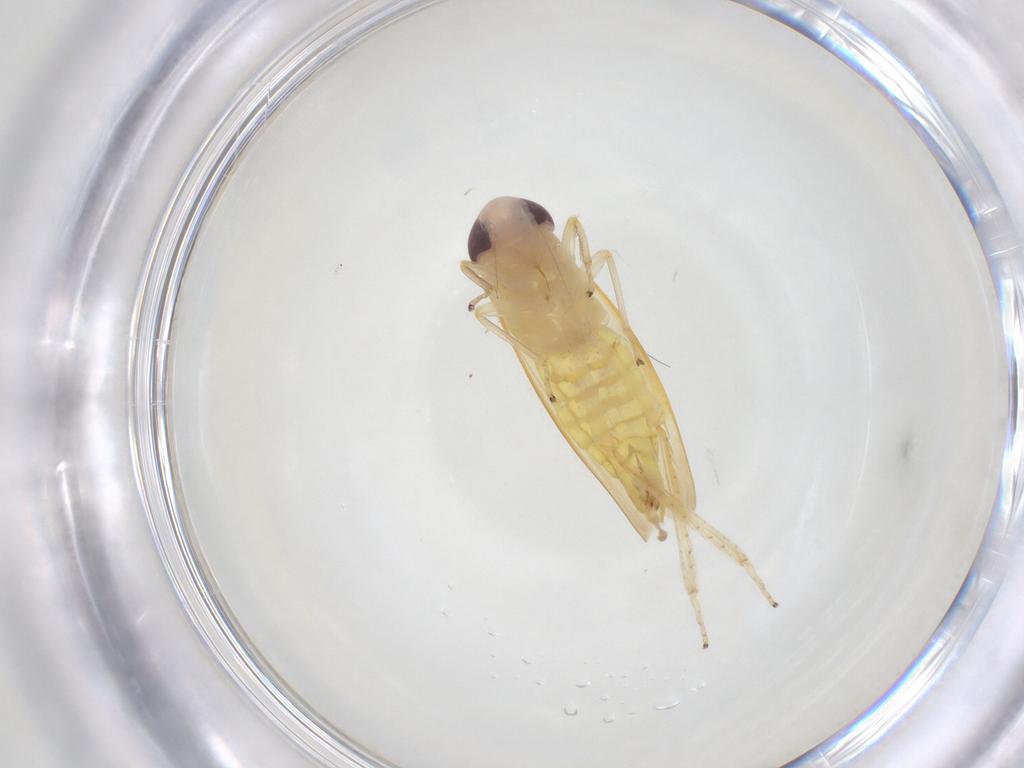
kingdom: Animalia
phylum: Arthropoda
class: Insecta
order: Hemiptera
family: Cicadellidae
